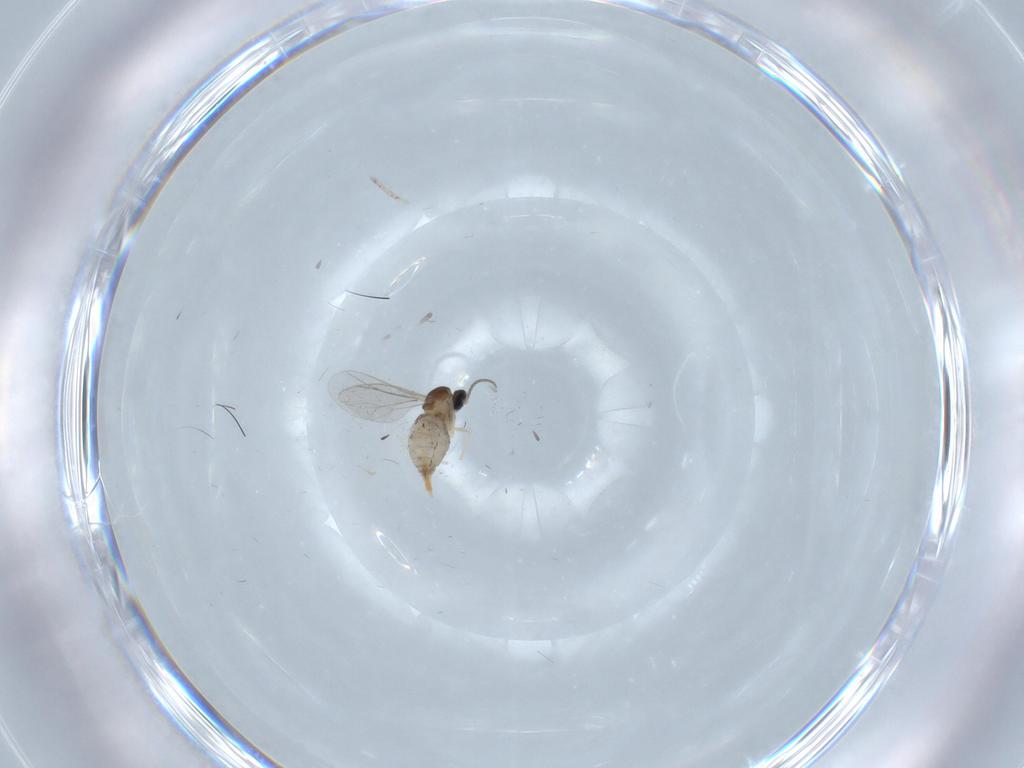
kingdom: Animalia
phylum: Arthropoda
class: Insecta
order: Diptera
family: Cecidomyiidae
